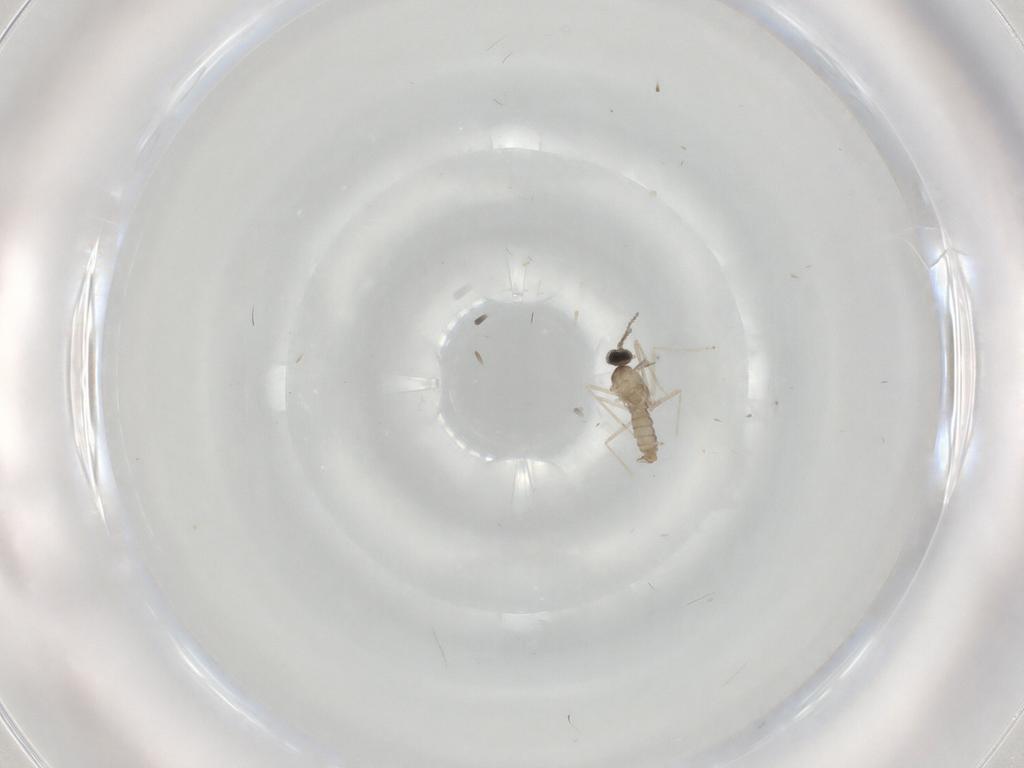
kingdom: Animalia
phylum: Arthropoda
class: Insecta
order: Diptera
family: Cecidomyiidae
